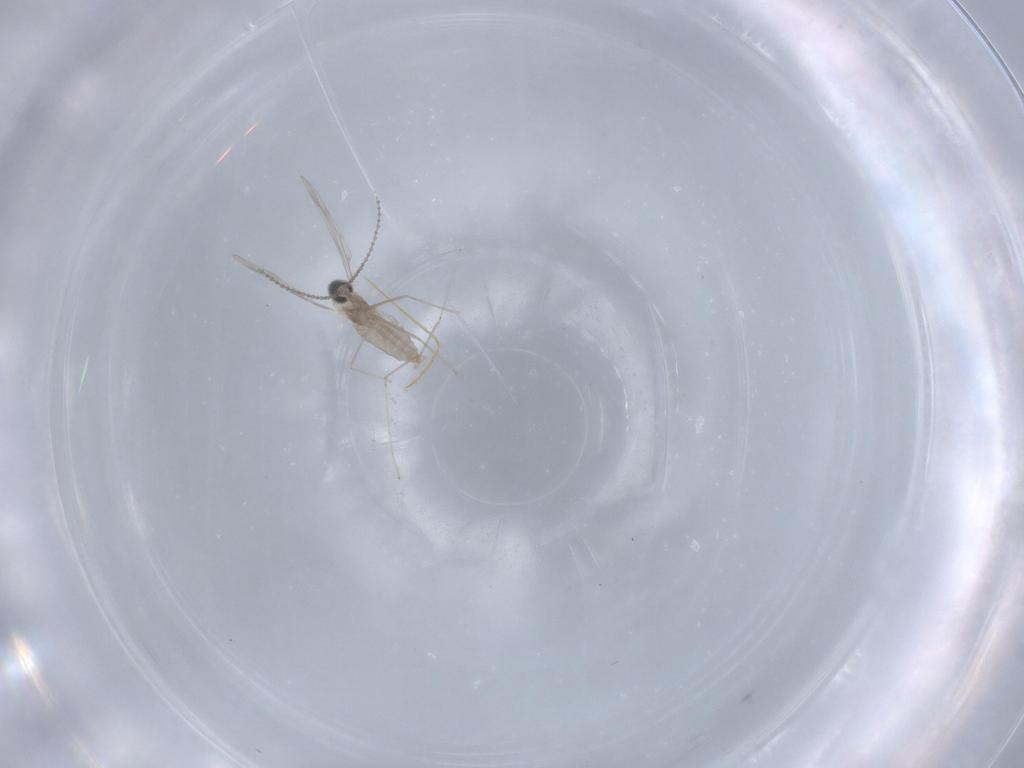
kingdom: Animalia
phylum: Arthropoda
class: Insecta
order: Diptera
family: Cecidomyiidae
